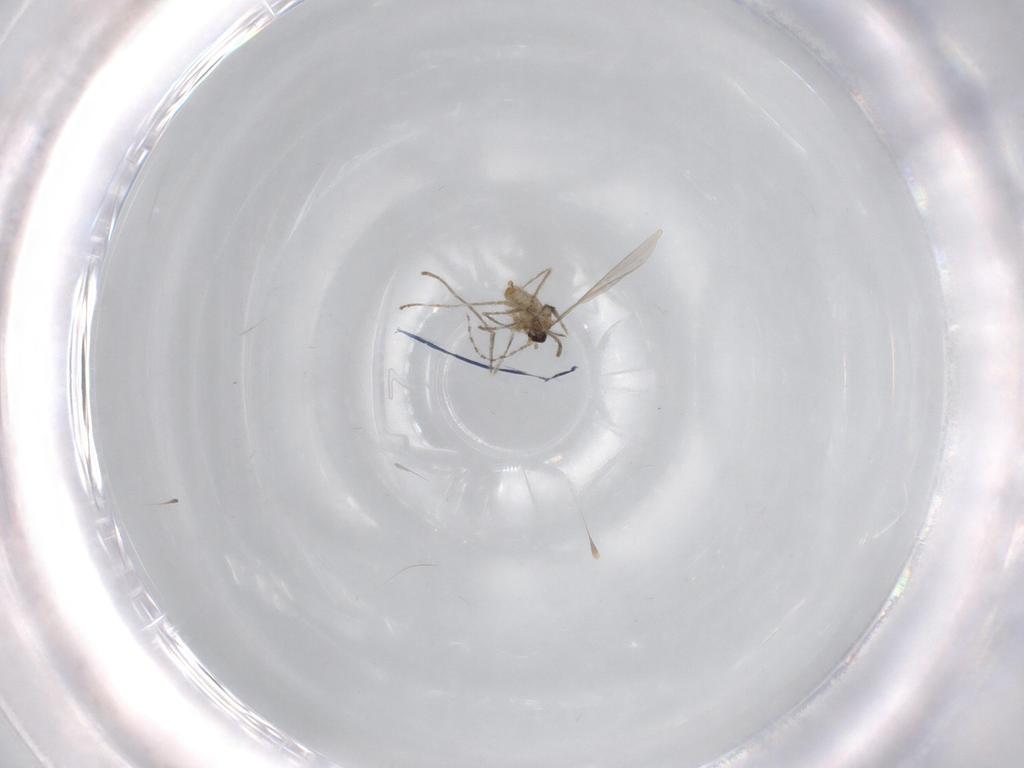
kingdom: Animalia
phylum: Arthropoda
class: Insecta
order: Diptera
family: Cecidomyiidae
